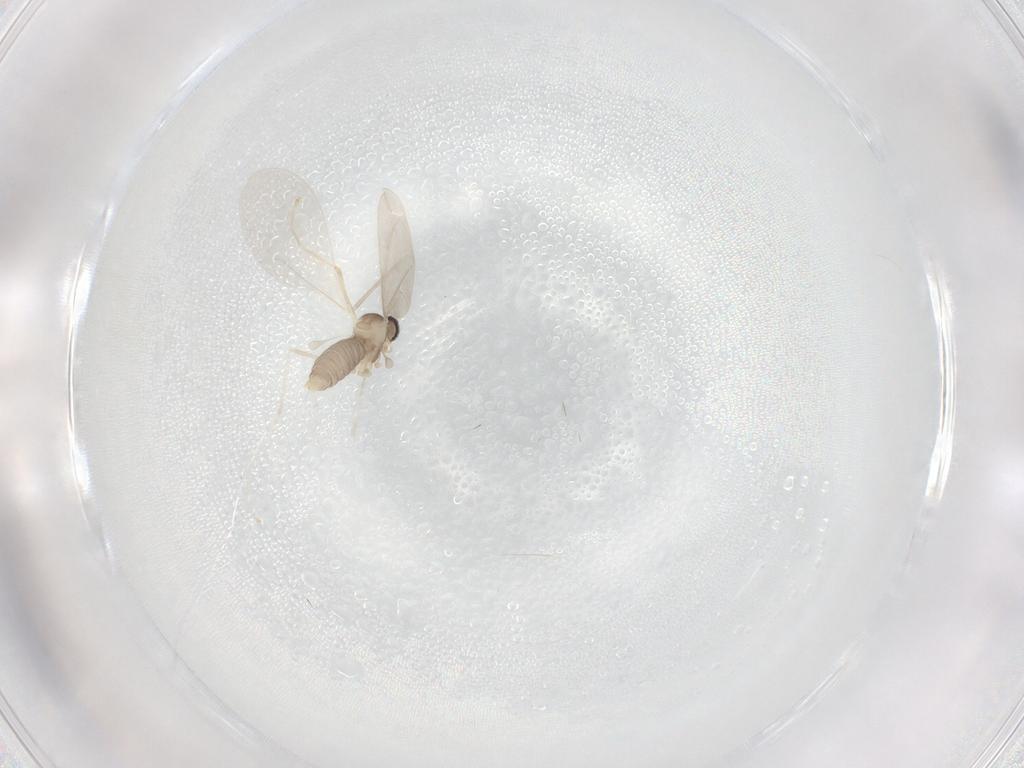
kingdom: Animalia
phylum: Arthropoda
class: Insecta
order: Diptera
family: Cecidomyiidae
